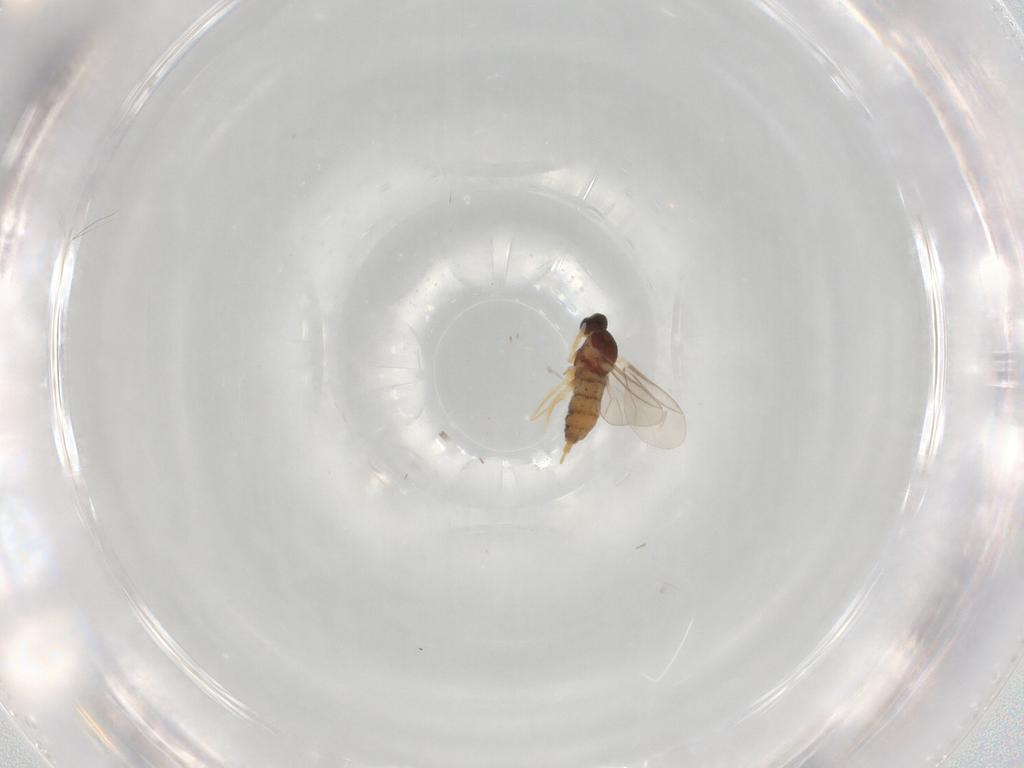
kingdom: Animalia
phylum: Arthropoda
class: Insecta
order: Diptera
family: Cecidomyiidae
